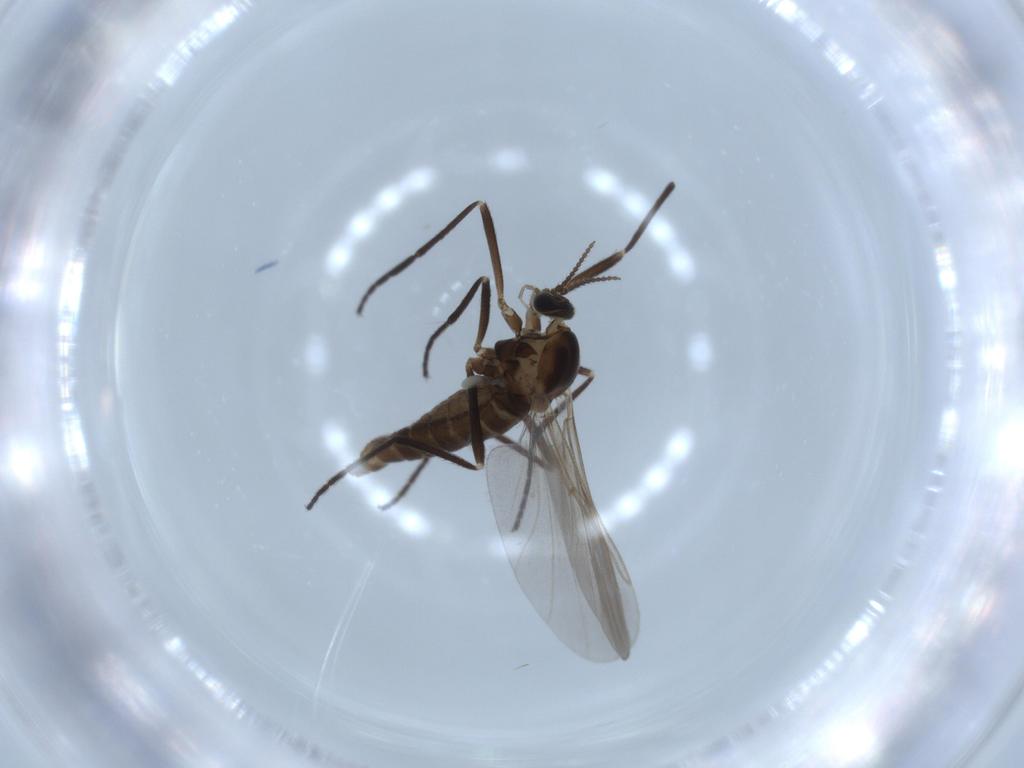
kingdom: Animalia
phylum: Arthropoda
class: Insecta
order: Diptera
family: Cecidomyiidae
